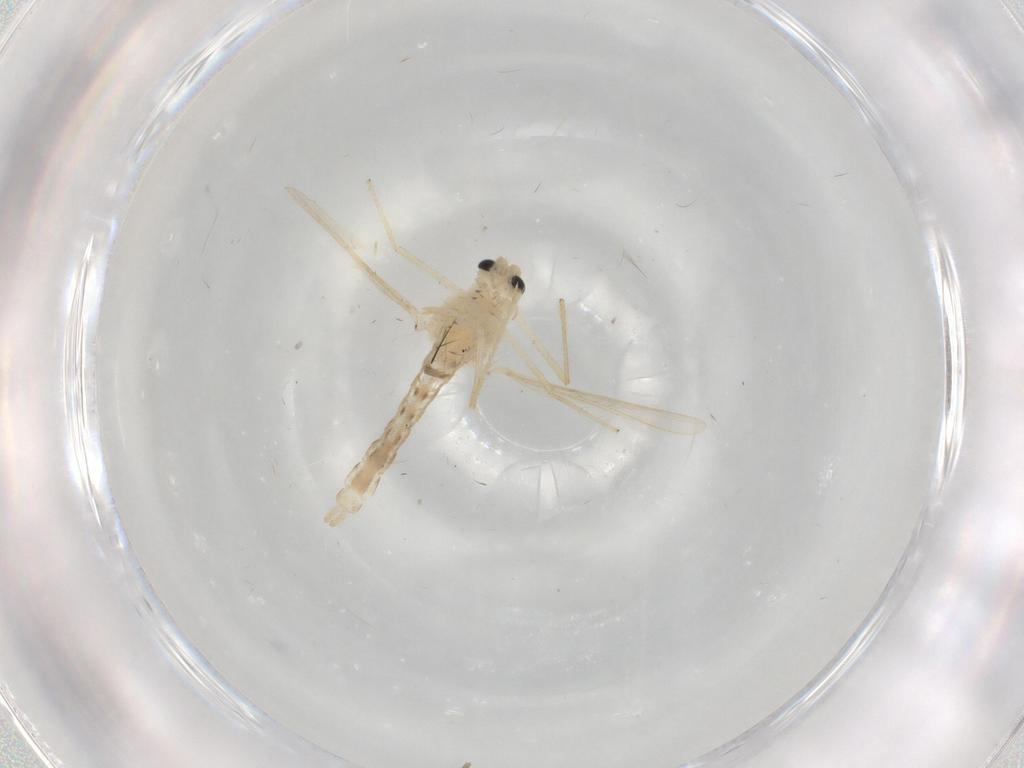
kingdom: Animalia
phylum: Arthropoda
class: Insecta
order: Diptera
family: Chironomidae
